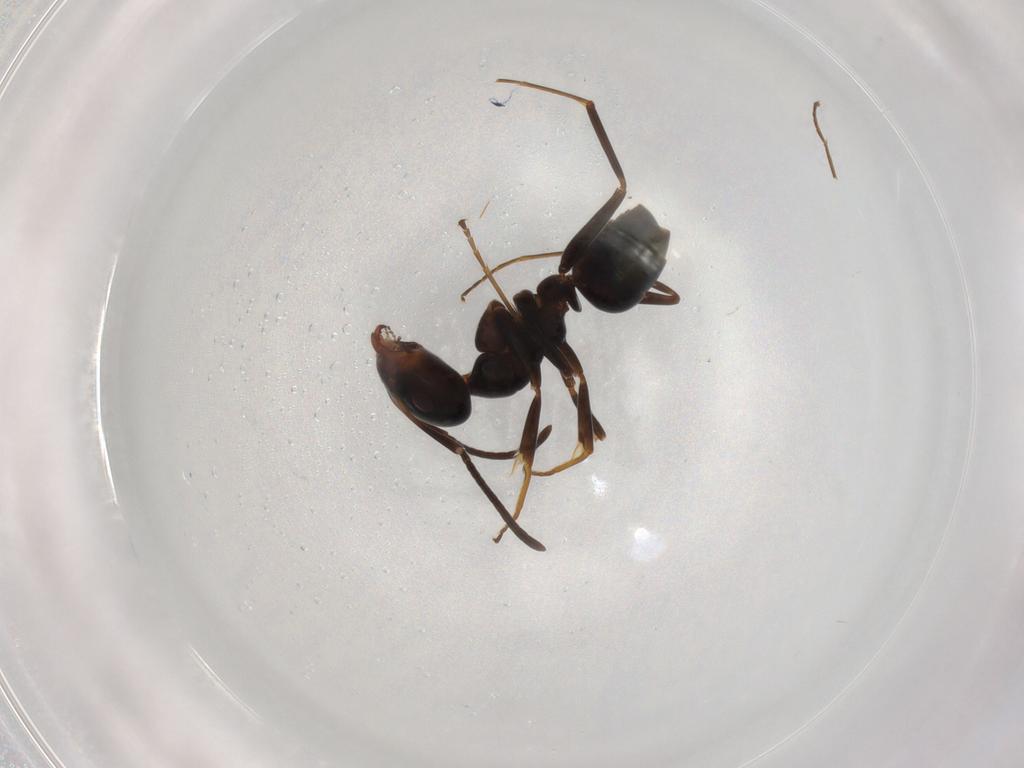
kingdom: Animalia
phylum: Arthropoda
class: Insecta
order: Hymenoptera
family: Formicidae
